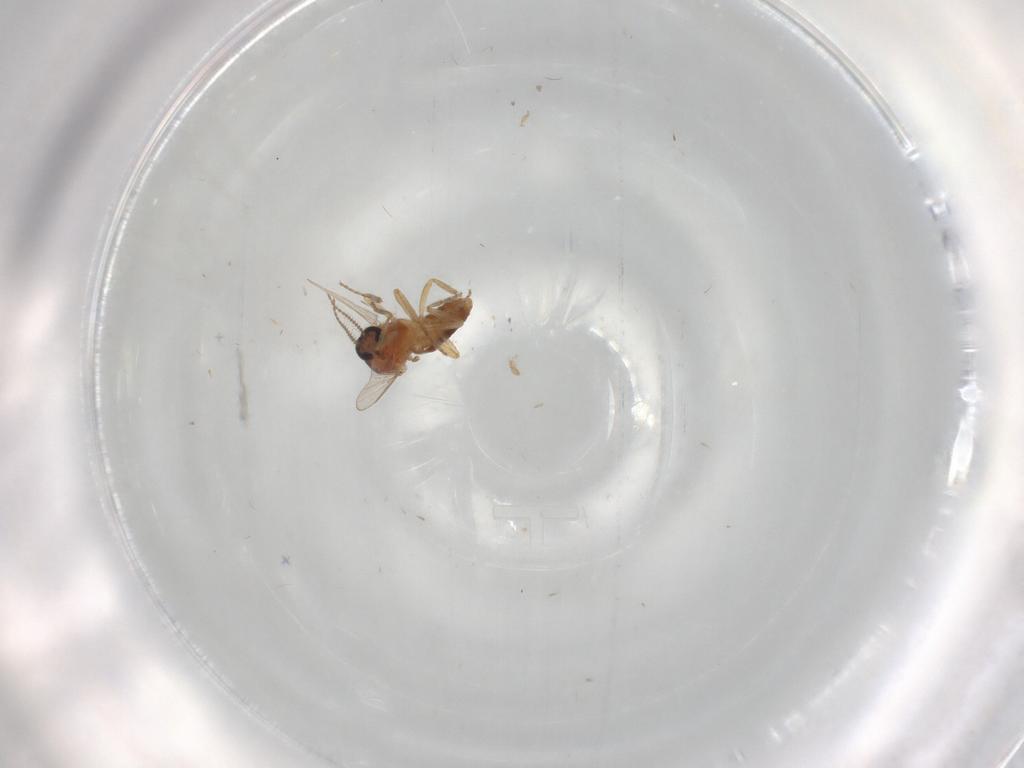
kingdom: Animalia
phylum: Arthropoda
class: Insecta
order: Diptera
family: Ceratopogonidae
